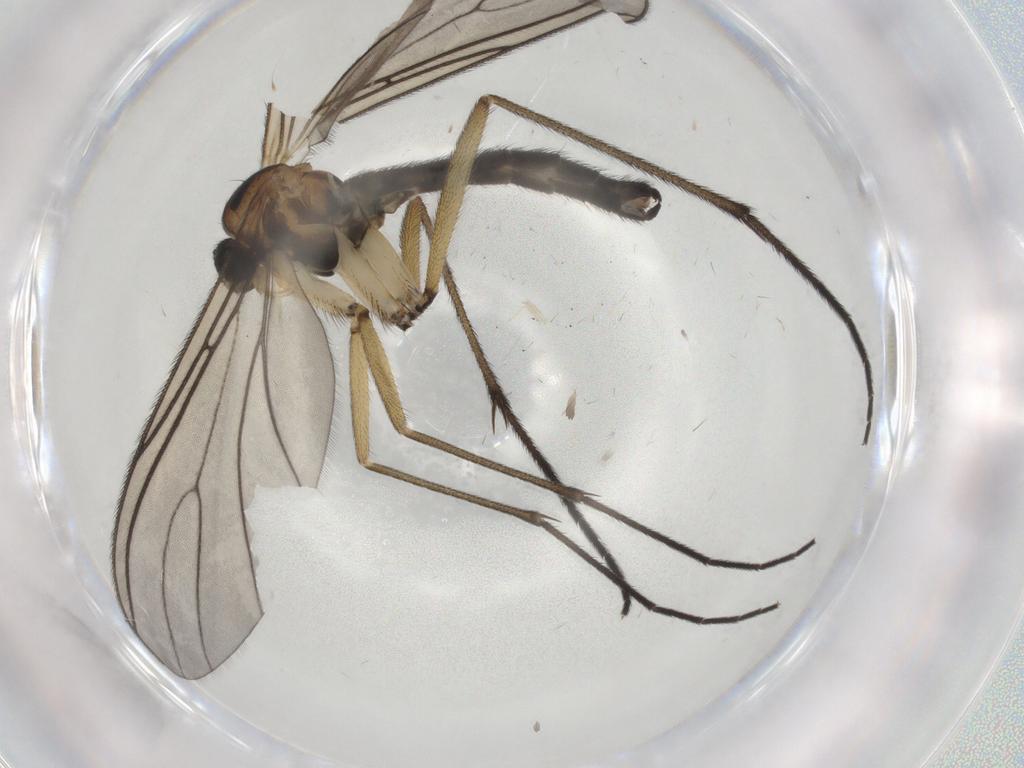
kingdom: Animalia
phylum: Arthropoda
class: Insecta
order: Diptera
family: Sciaridae
